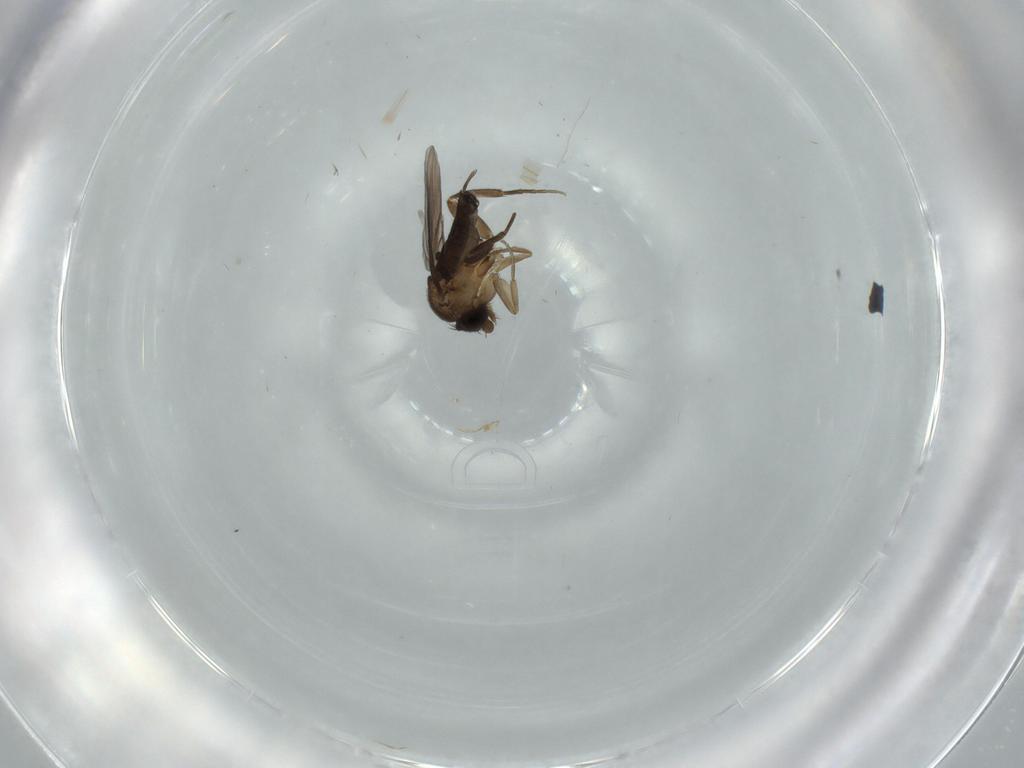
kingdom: Animalia
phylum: Arthropoda
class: Insecta
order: Diptera
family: Phoridae
